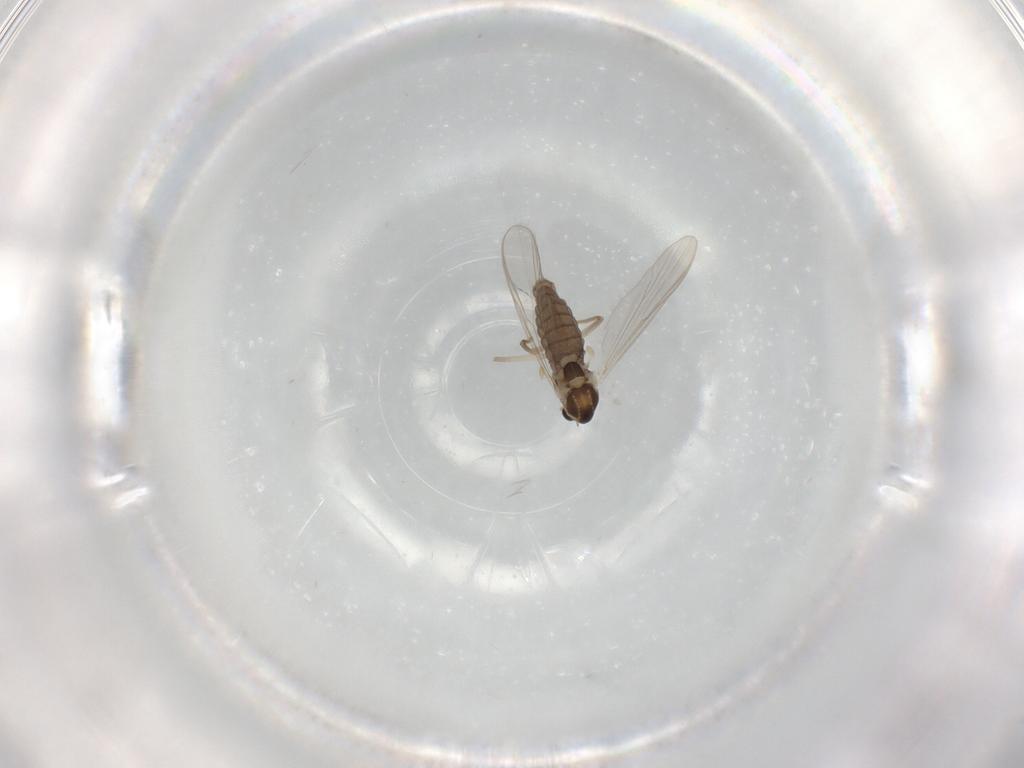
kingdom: Animalia
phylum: Arthropoda
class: Insecta
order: Diptera
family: Chironomidae
